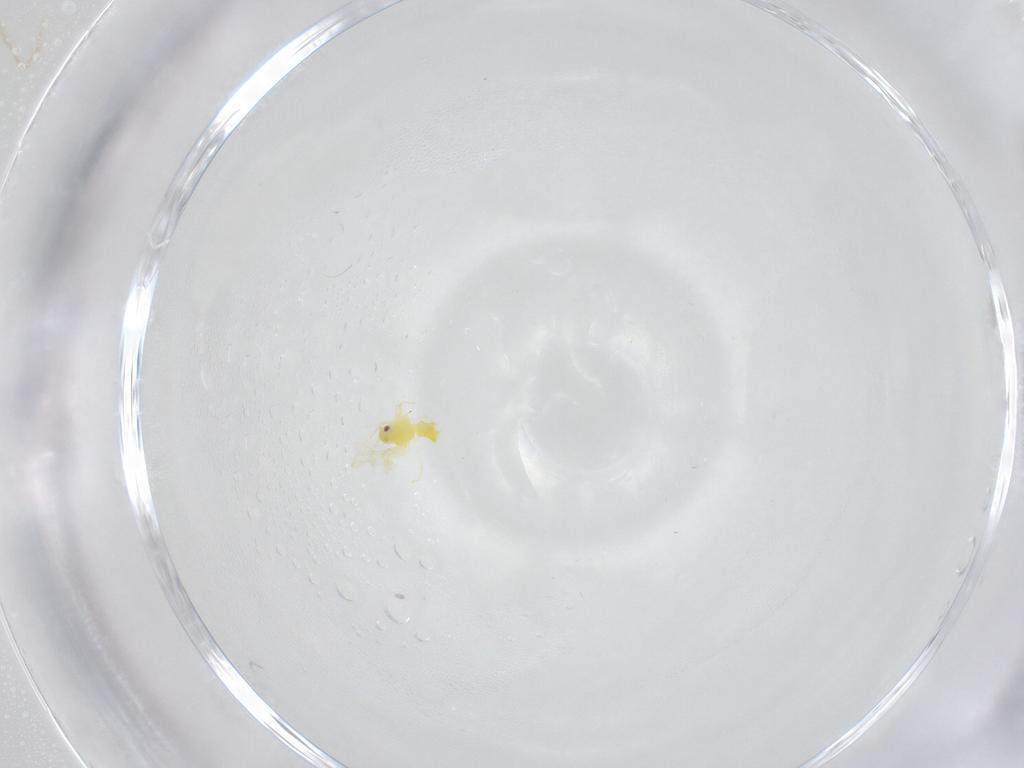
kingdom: Animalia
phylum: Arthropoda
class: Insecta
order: Hemiptera
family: Aleyrodidae
